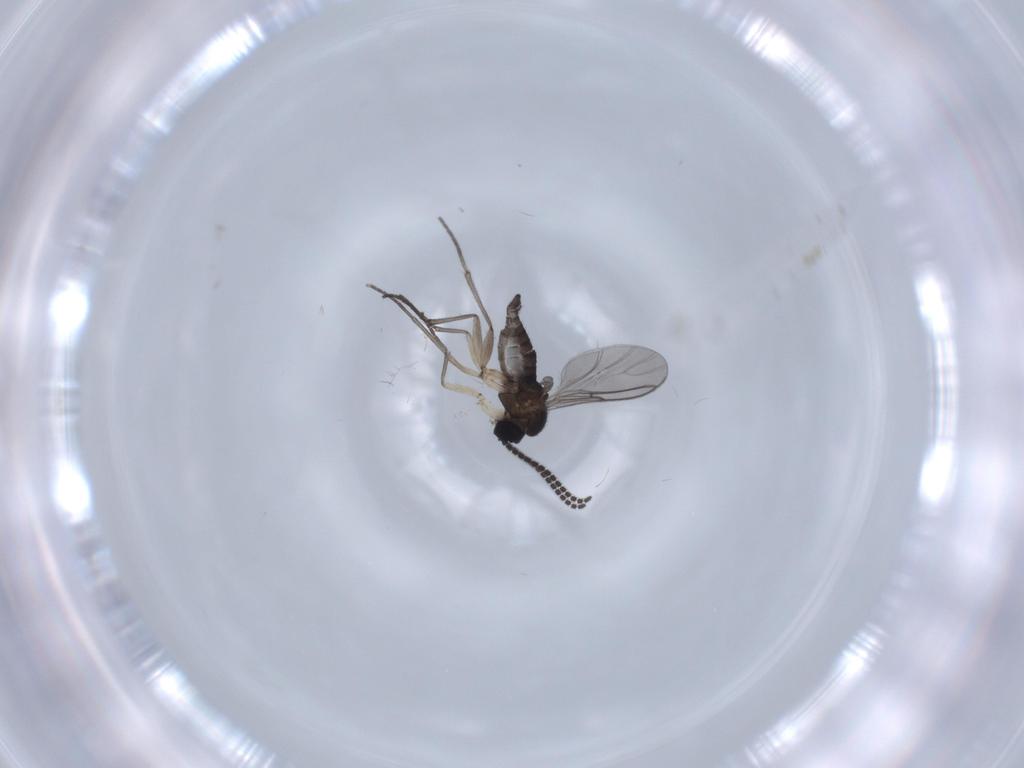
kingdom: Animalia
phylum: Arthropoda
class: Insecta
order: Diptera
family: Sciaridae
